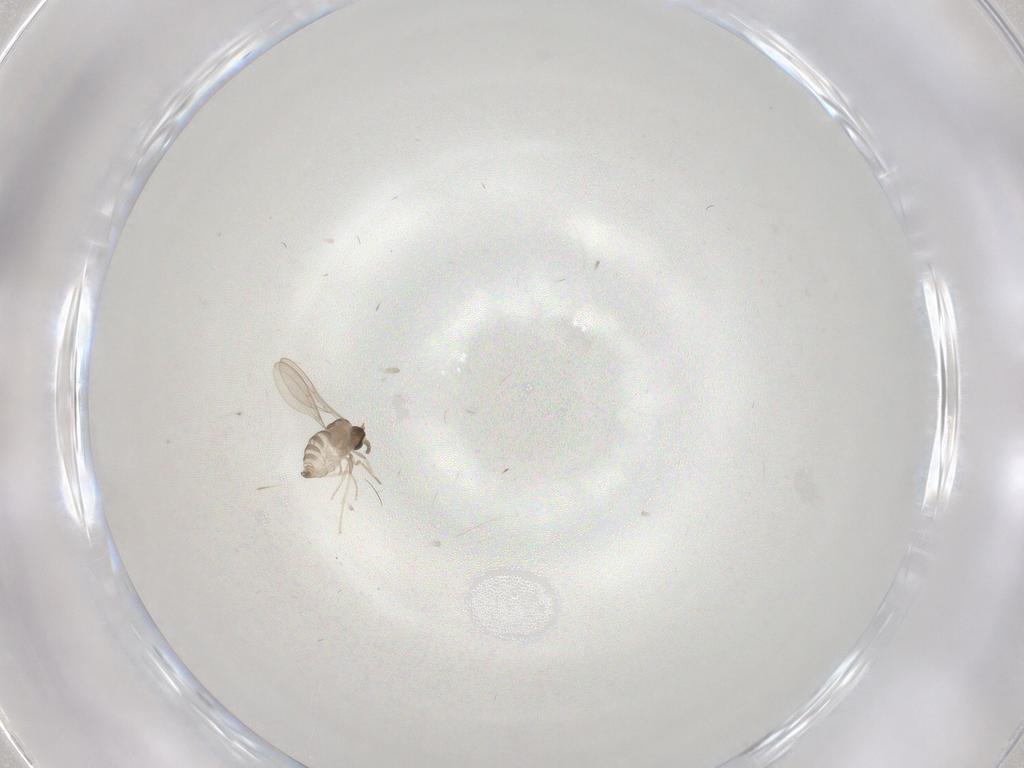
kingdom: Animalia
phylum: Arthropoda
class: Insecta
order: Diptera
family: Cecidomyiidae
